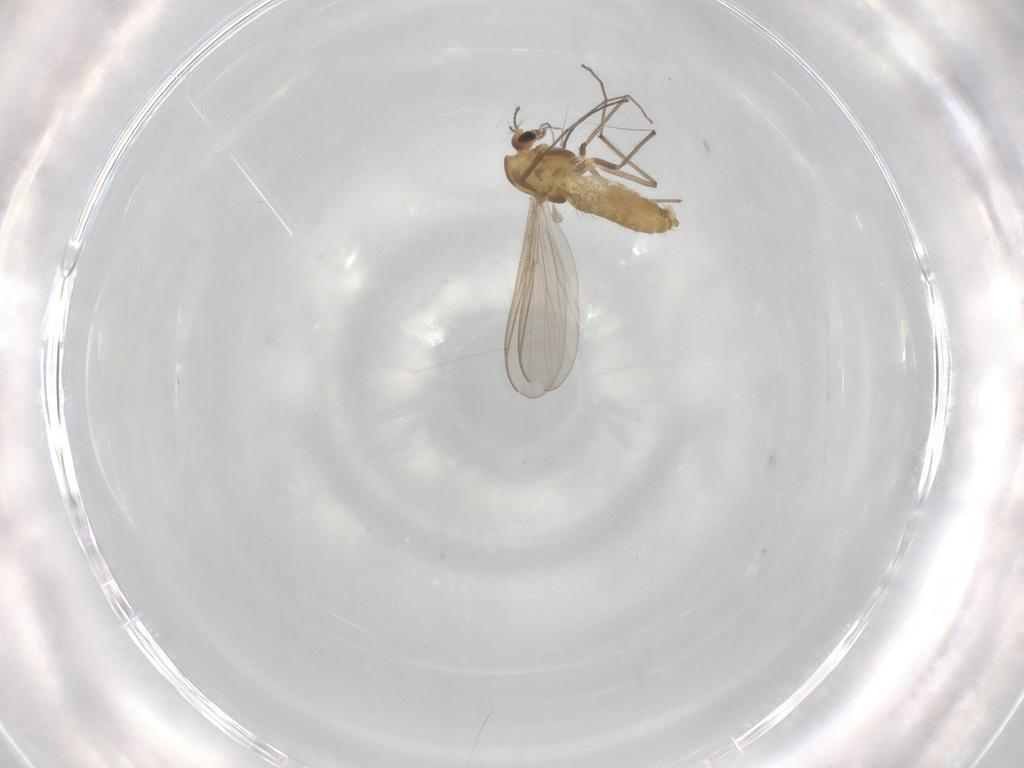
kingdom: Animalia
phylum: Arthropoda
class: Insecta
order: Diptera
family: Chironomidae
